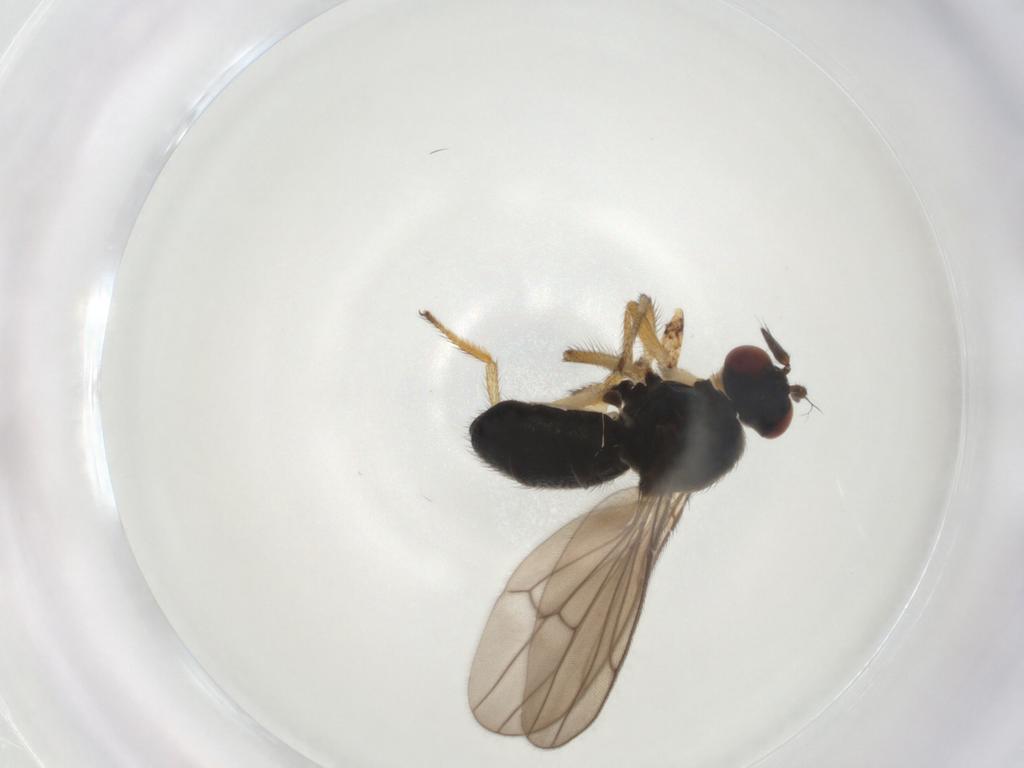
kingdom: Animalia
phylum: Arthropoda
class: Insecta
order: Diptera
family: Ephydridae
